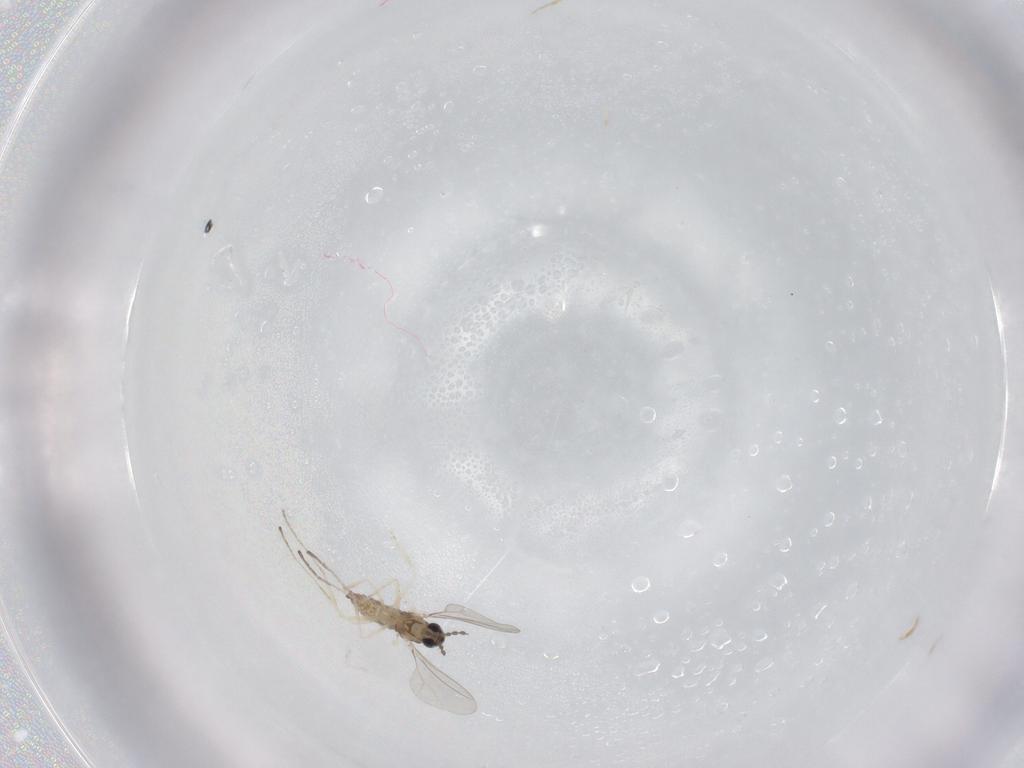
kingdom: Animalia
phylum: Arthropoda
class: Insecta
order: Diptera
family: Cecidomyiidae
